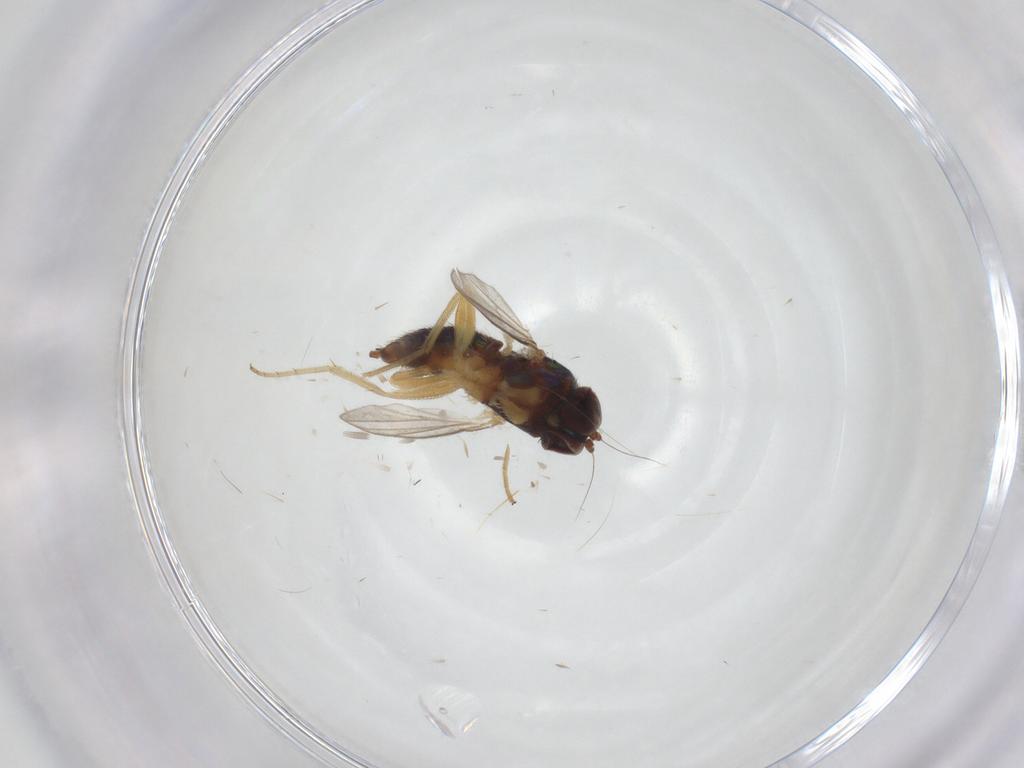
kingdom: Animalia
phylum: Arthropoda
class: Insecta
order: Diptera
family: Dolichopodidae
